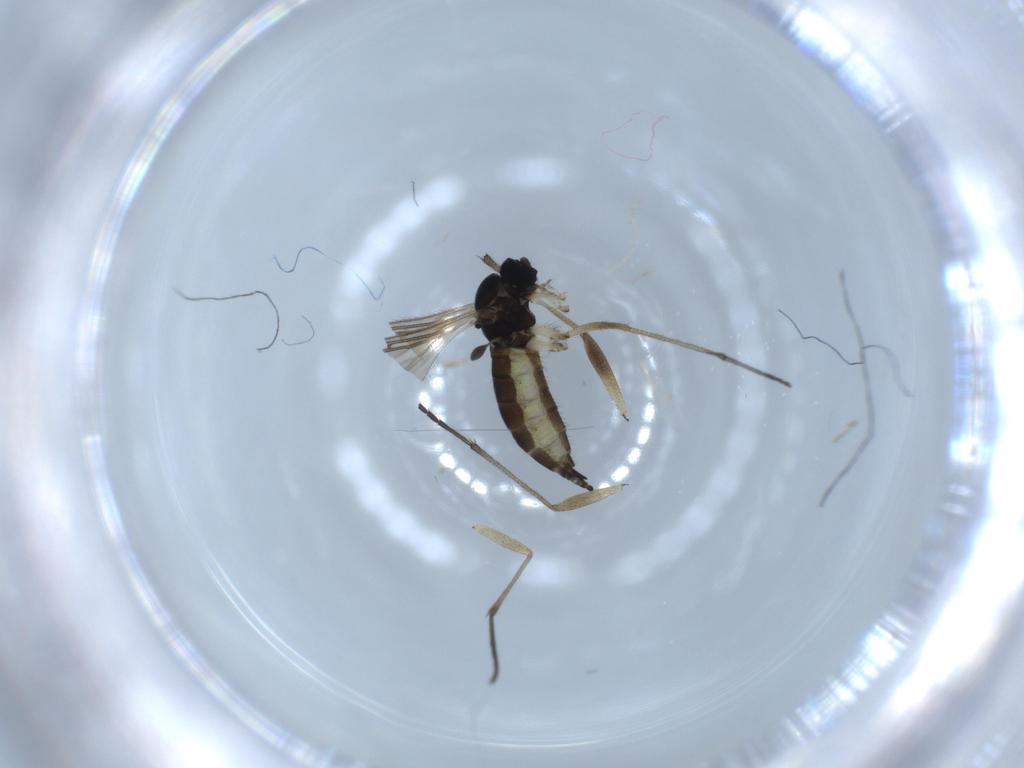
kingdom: Animalia
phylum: Arthropoda
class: Insecta
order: Diptera
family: Sciaridae
